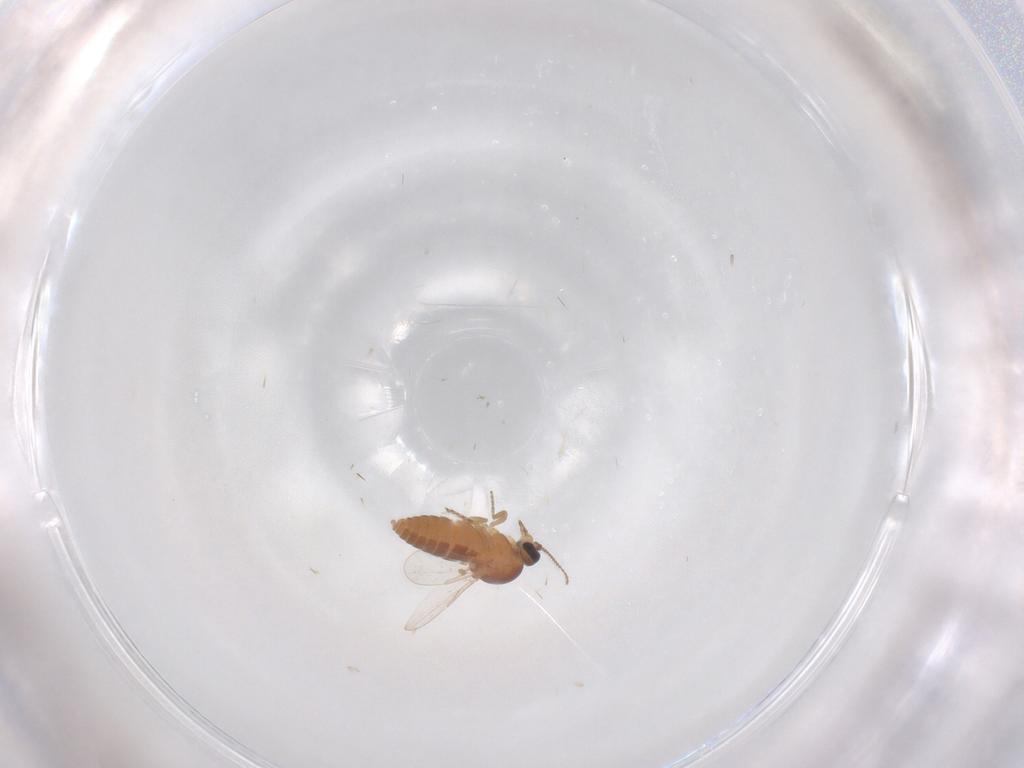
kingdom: Animalia
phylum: Arthropoda
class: Insecta
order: Diptera
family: Ceratopogonidae
